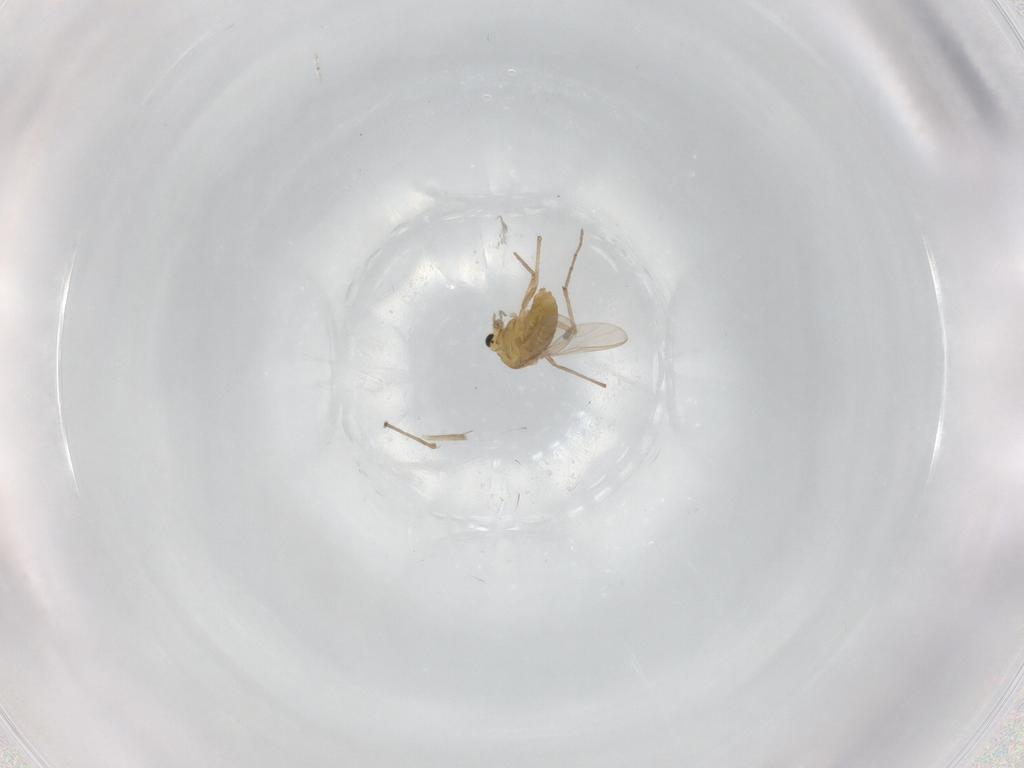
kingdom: Animalia
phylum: Arthropoda
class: Insecta
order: Diptera
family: Chironomidae
